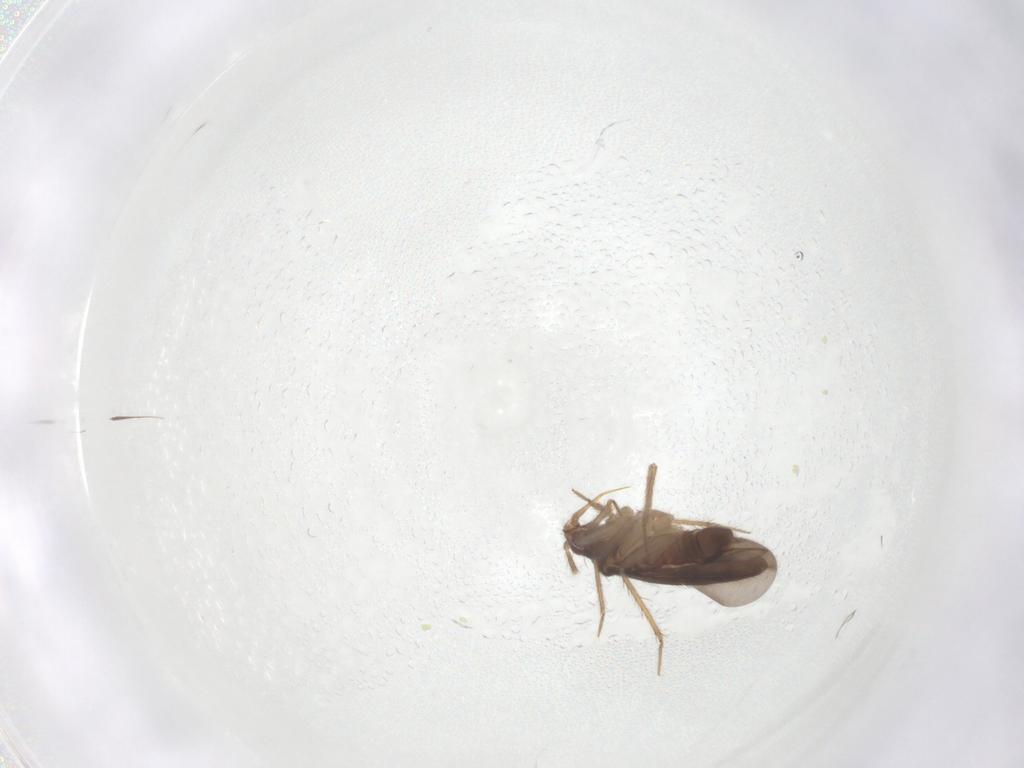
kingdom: Animalia
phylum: Arthropoda
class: Insecta
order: Hemiptera
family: Ceratocombidae
